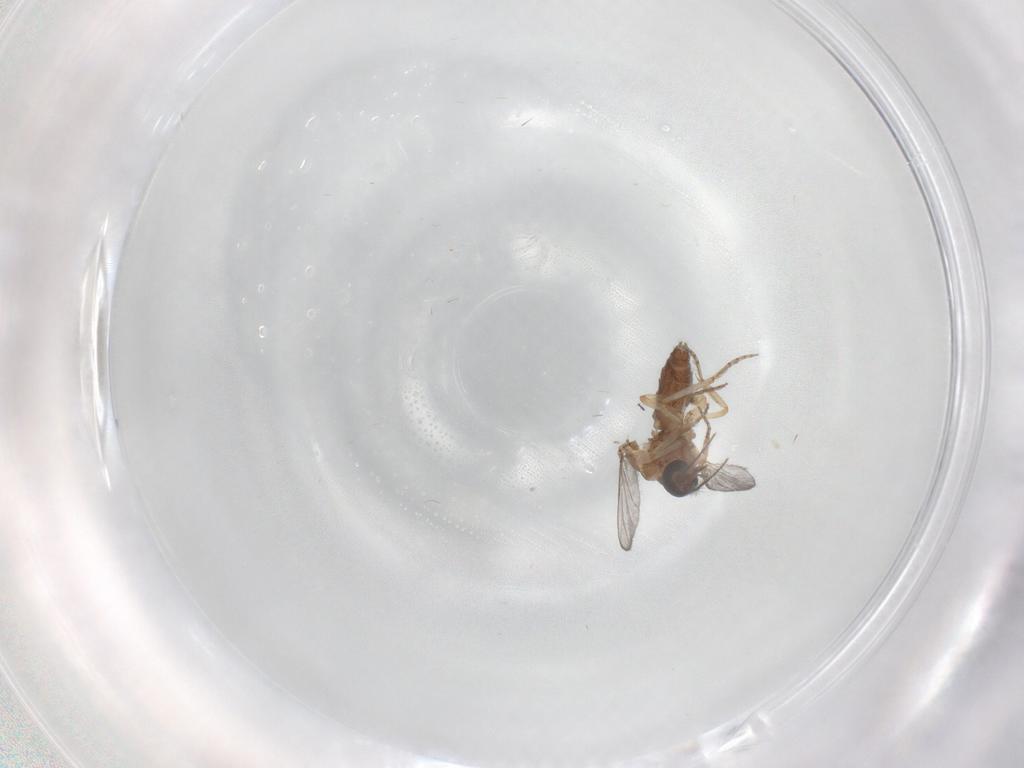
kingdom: Animalia
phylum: Arthropoda
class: Insecta
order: Diptera
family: Ceratopogonidae
